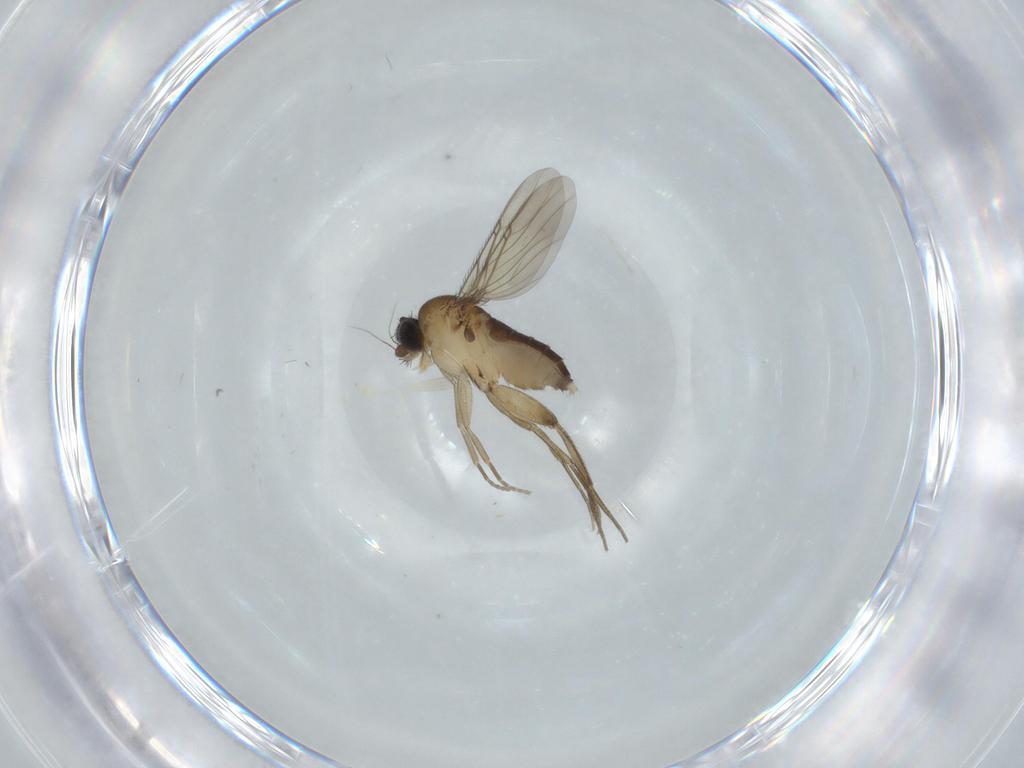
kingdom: Animalia
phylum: Arthropoda
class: Insecta
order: Diptera
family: Phoridae
